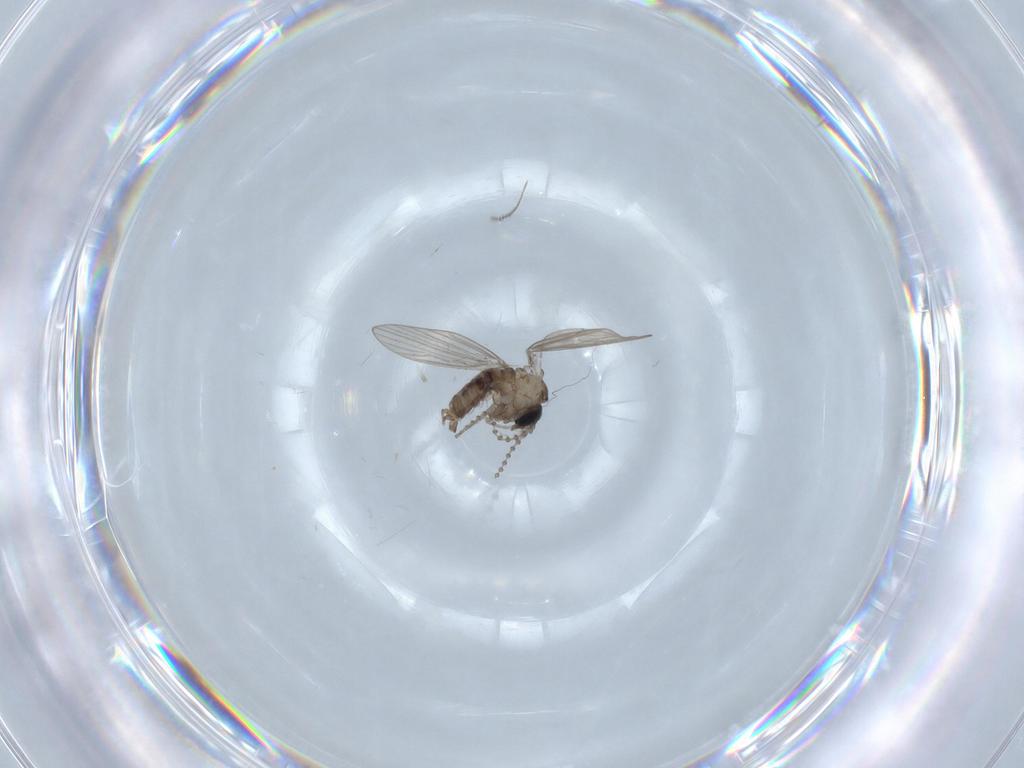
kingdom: Animalia
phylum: Arthropoda
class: Insecta
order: Diptera
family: Psychodidae
